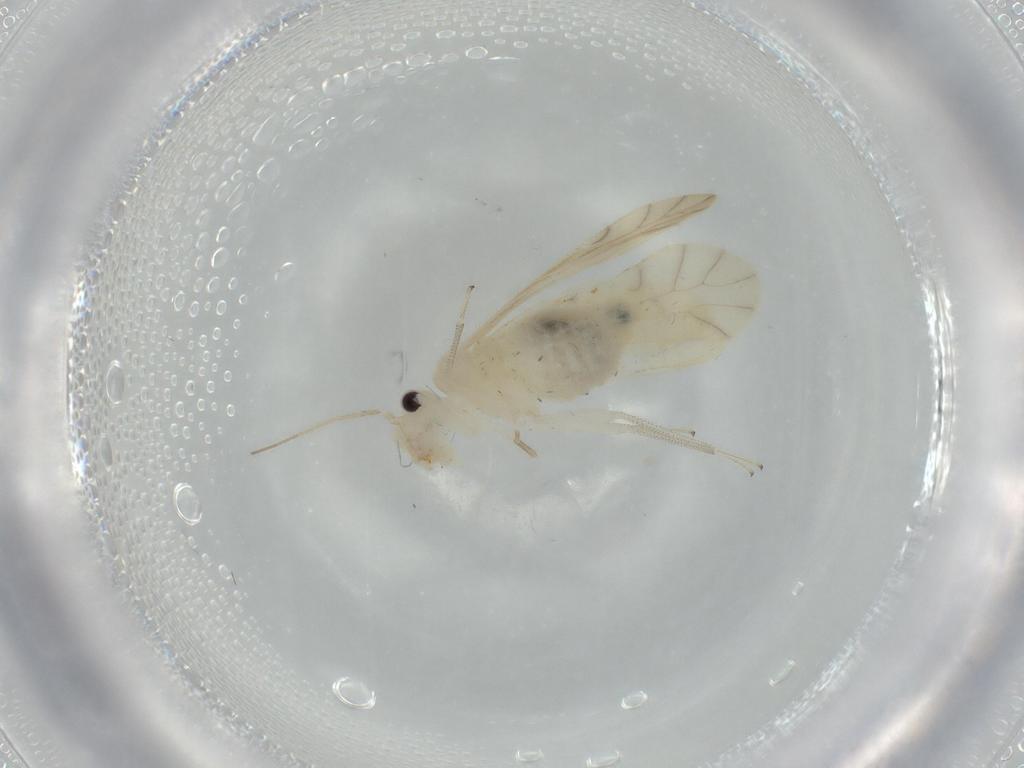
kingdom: Animalia
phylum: Arthropoda
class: Insecta
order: Psocodea
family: Caeciliusidae
